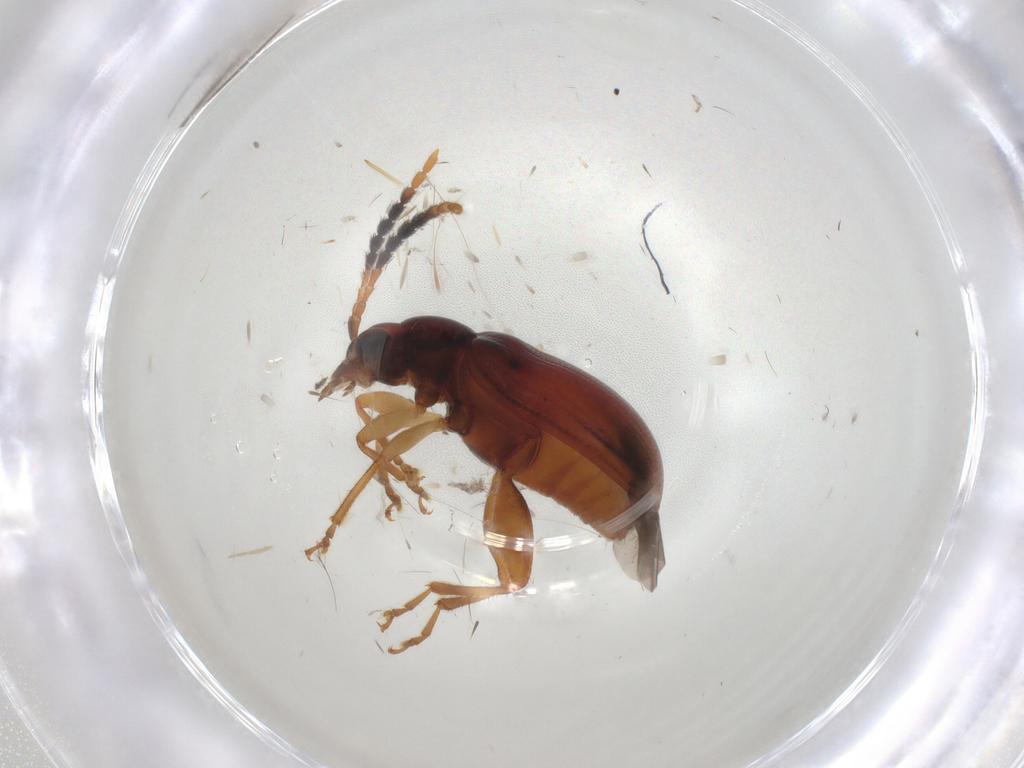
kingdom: Animalia
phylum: Arthropoda
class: Insecta
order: Coleoptera
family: Chrysomelidae
